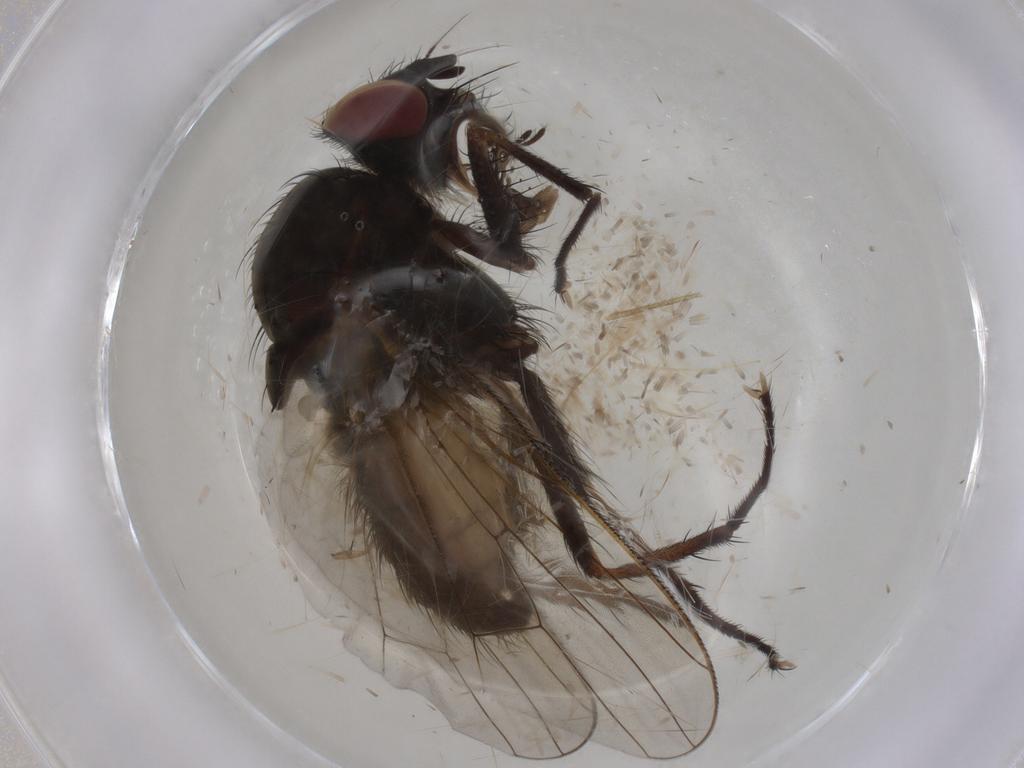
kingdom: Animalia
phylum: Arthropoda
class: Insecta
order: Diptera
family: Anthomyiidae
